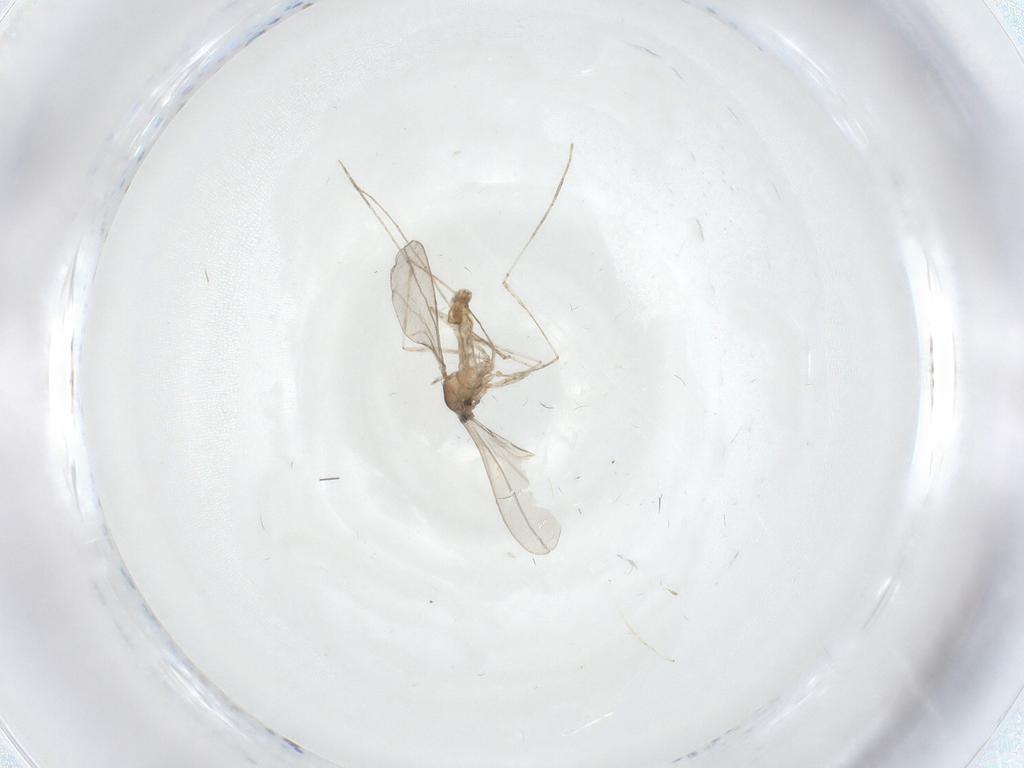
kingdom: Animalia
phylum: Arthropoda
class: Insecta
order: Diptera
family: Cecidomyiidae
